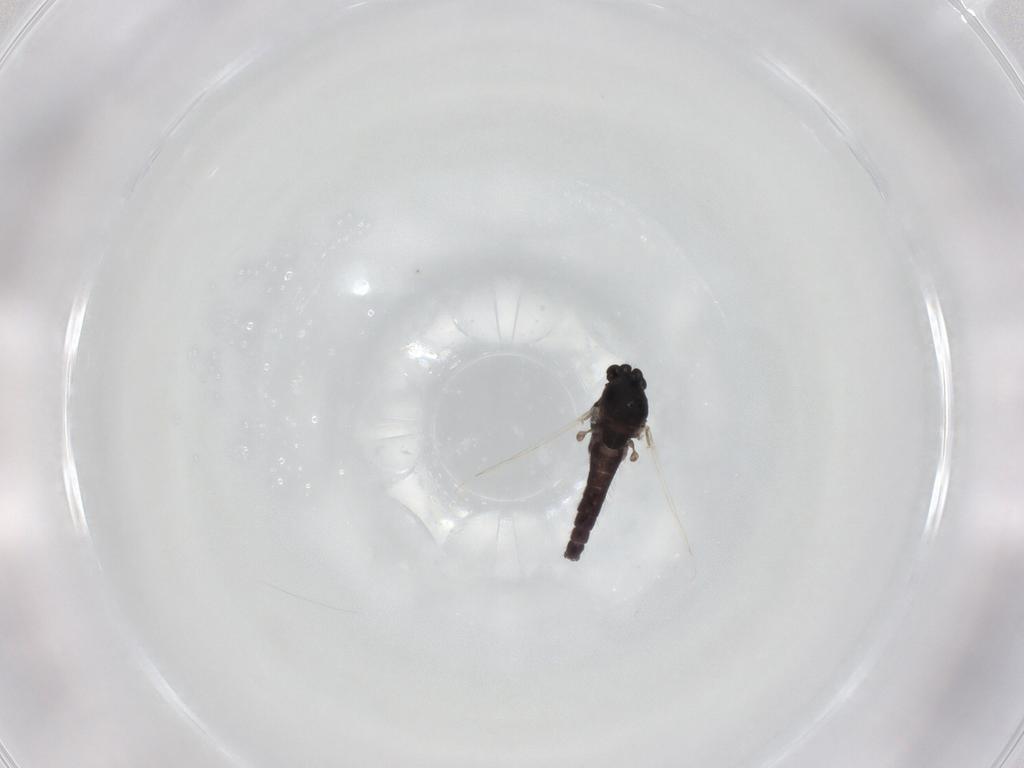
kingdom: Animalia
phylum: Arthropoda
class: Insecta
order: Diptera
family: Chironomidae
